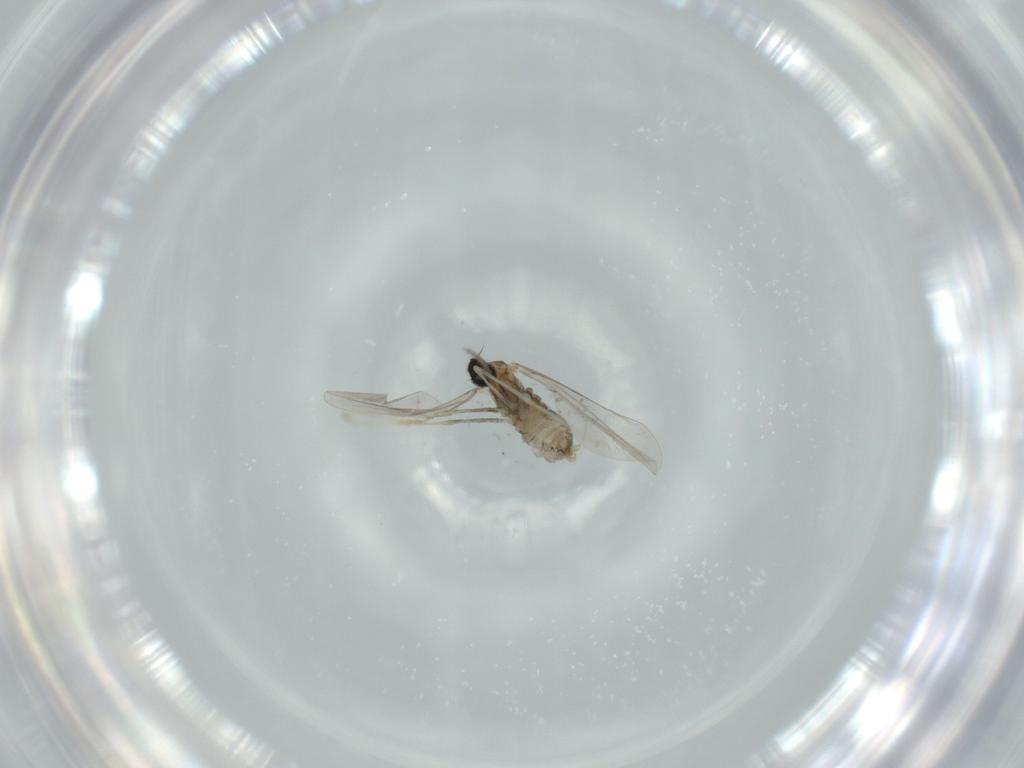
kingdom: Animalia
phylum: Arthropoda
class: Insecta
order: Diptera
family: Cecidomyiidae
